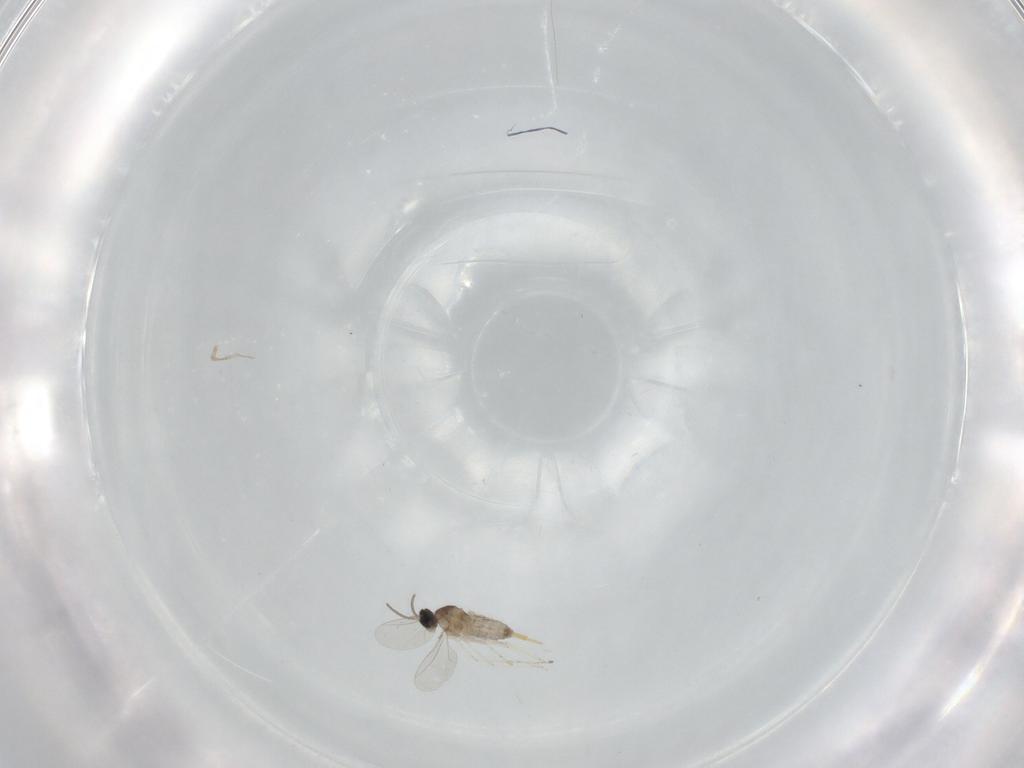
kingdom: Animalia
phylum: Arthropoda
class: Insecta
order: Diptera
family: Cecidomyiidae
